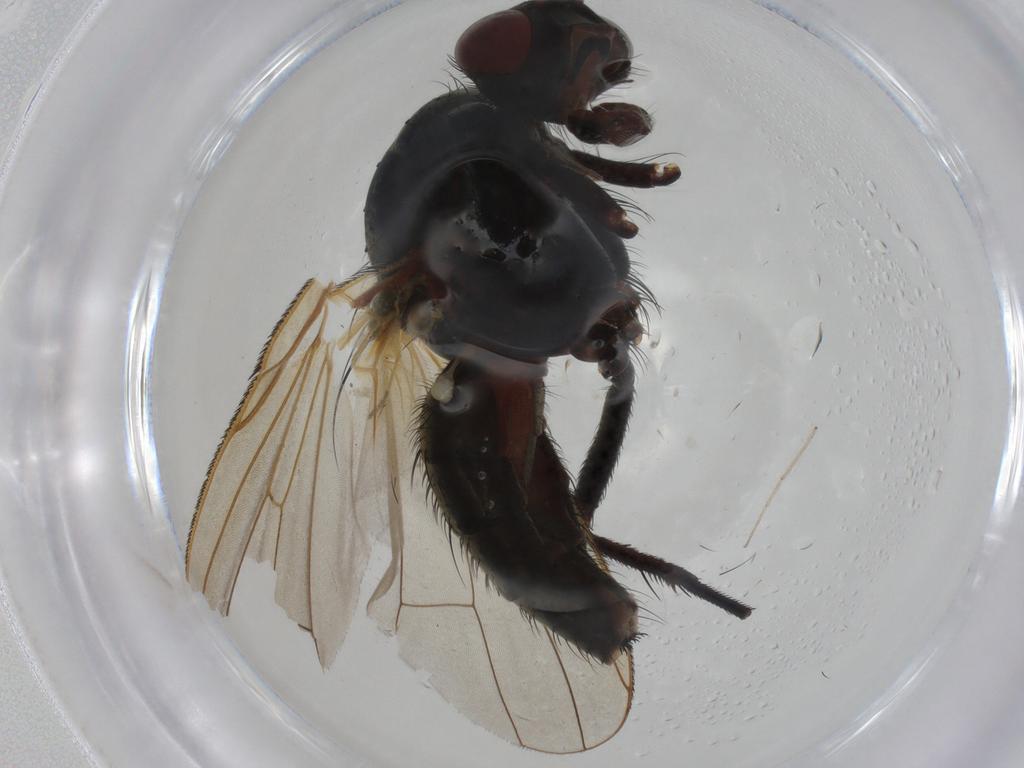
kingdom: Animalia
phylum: Arthropoda
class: Insecta
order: Diptera
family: Anthomyiidae
